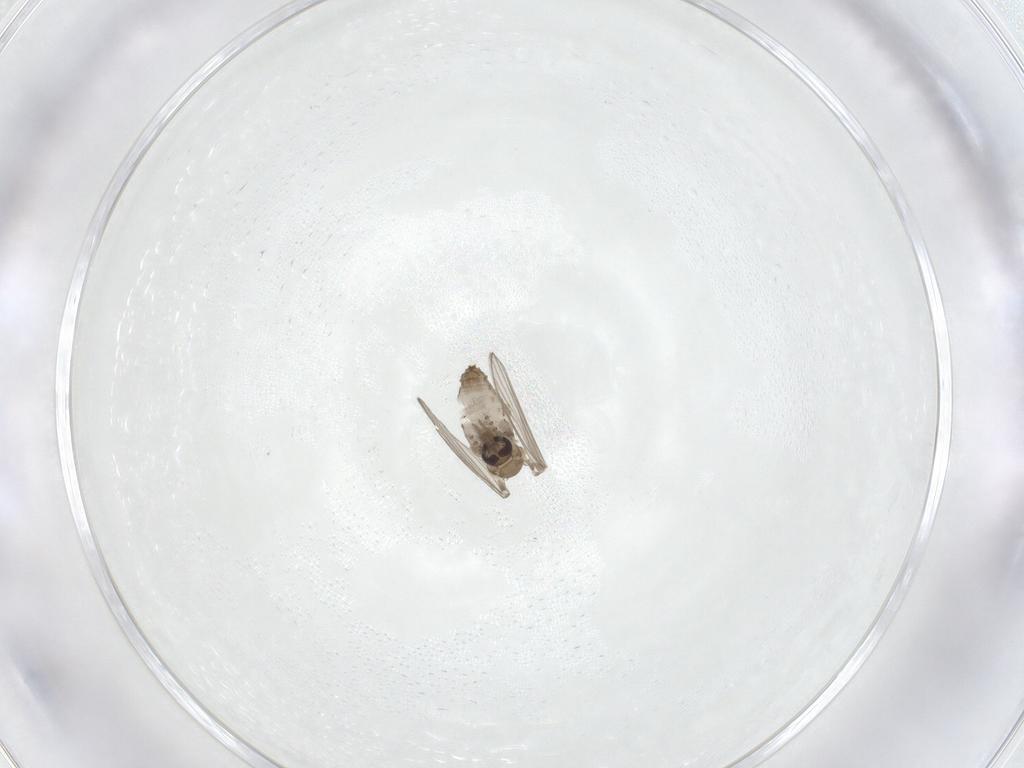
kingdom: Animalia
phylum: Arthropoda
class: Insecta
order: Diptera
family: Psychodidae
